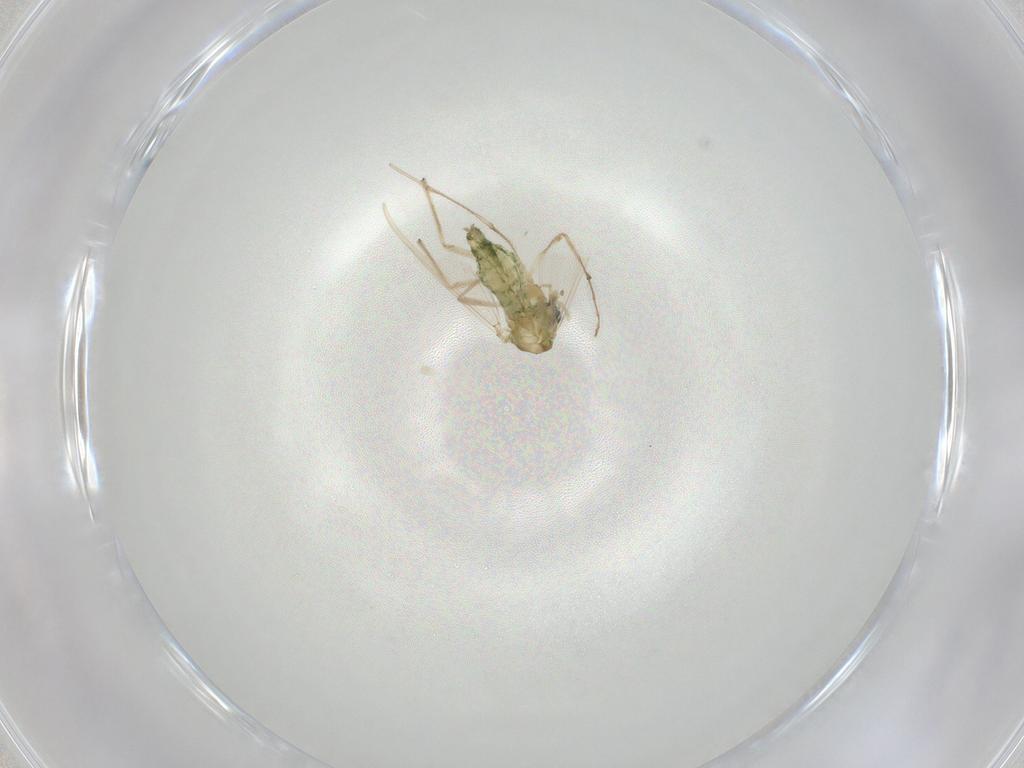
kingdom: Animalia
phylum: Arthropoda
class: Insecta
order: Diptera
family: Chironomidae
